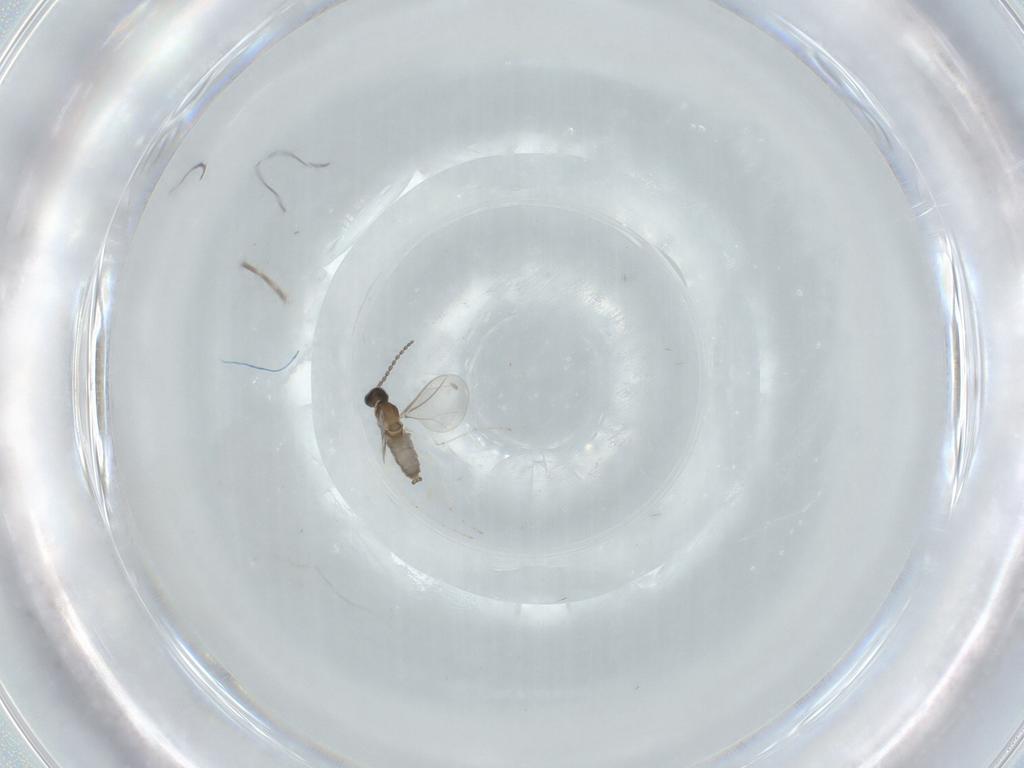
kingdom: Animalia
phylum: Arthropoda
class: Insecta
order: Diptera
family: Cecidomyiidae
